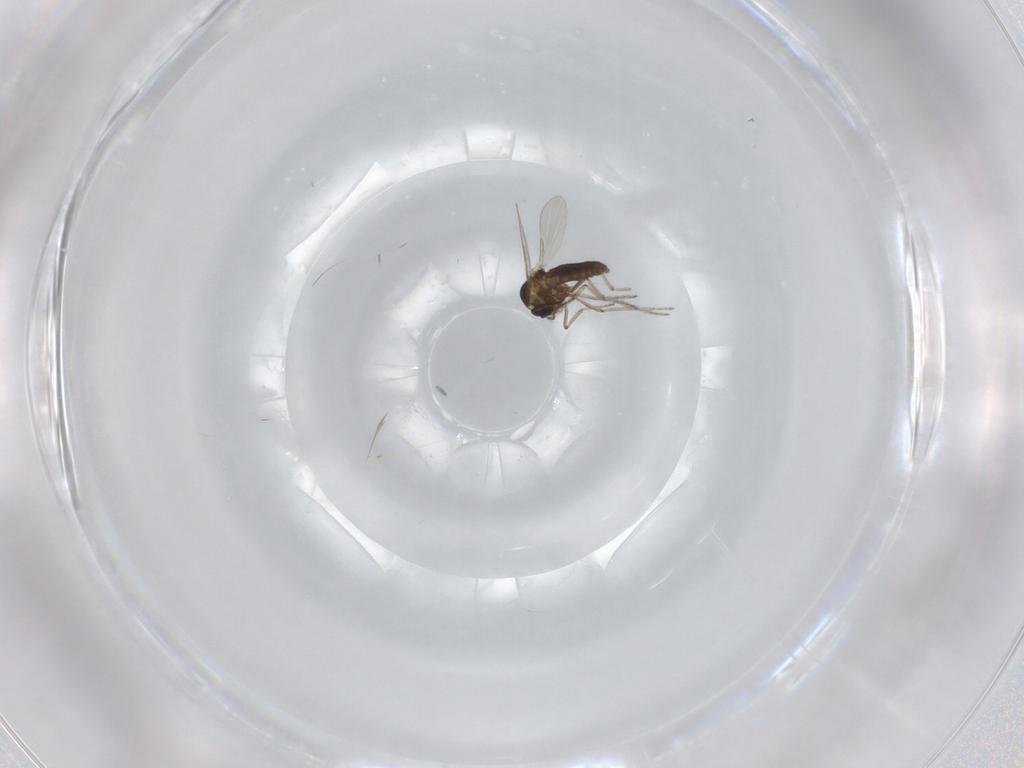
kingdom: Animalia
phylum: Arthropoda
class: Insecta
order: Diptera
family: Ceratopogonidae
